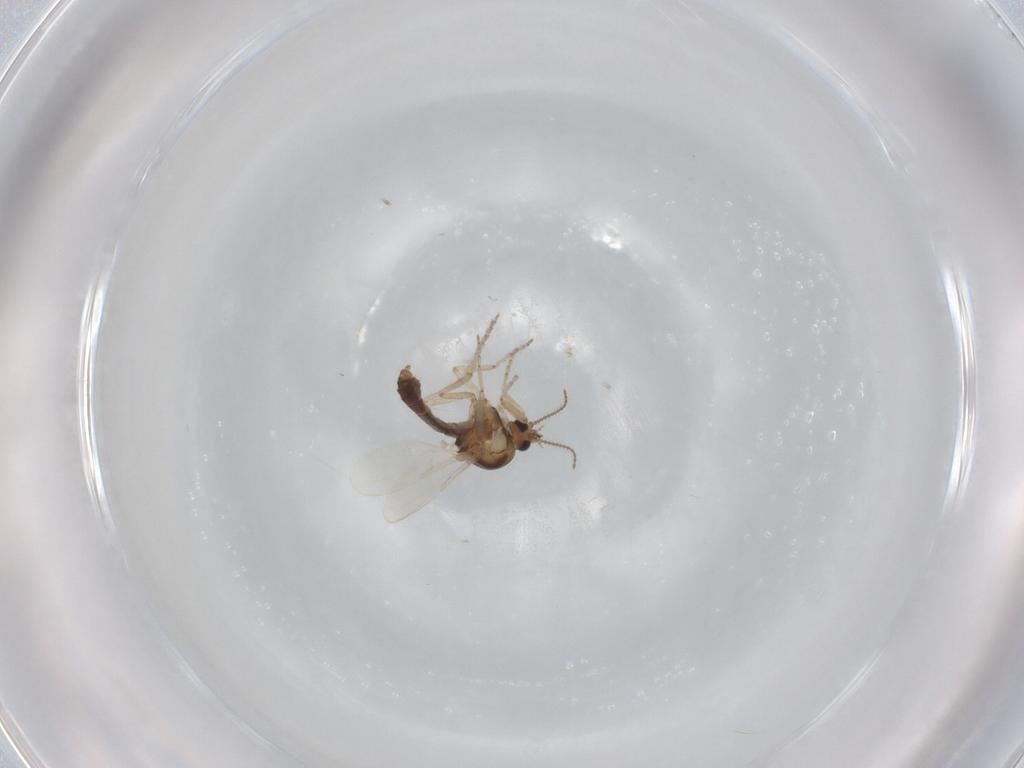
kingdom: Animalia
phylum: Arthropoda
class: Insecta
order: Diptera
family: Ceratopogonidae
